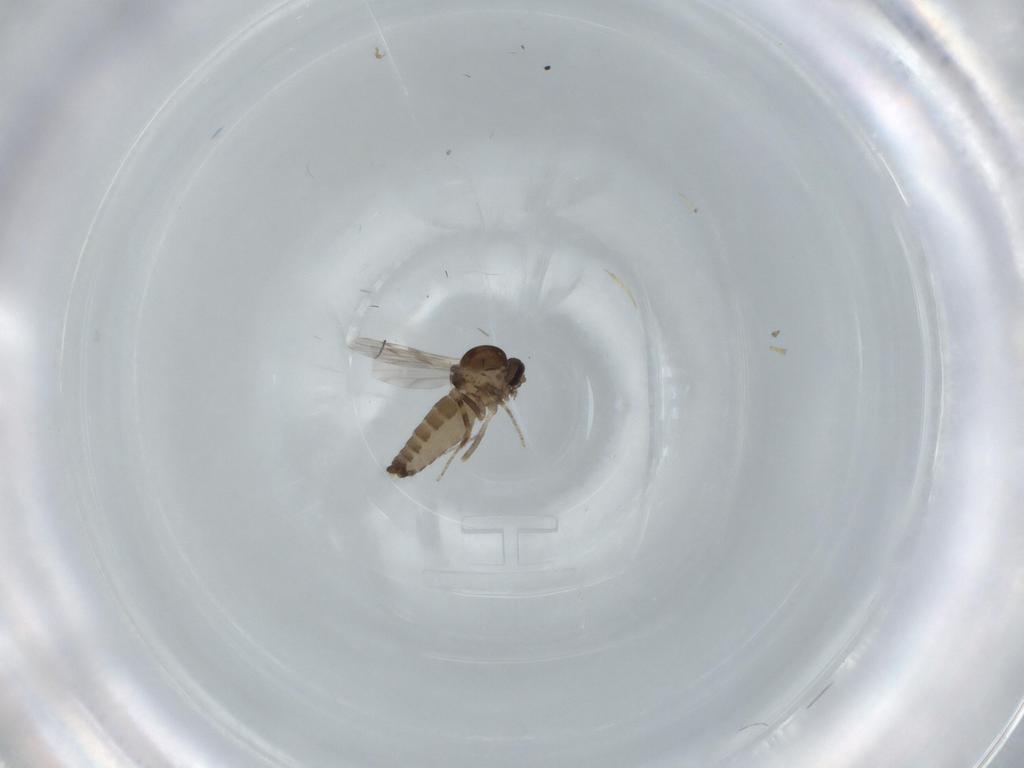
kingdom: Animalia
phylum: Arthropoda
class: Insecta
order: Diptera
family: Ceratopogonidae
